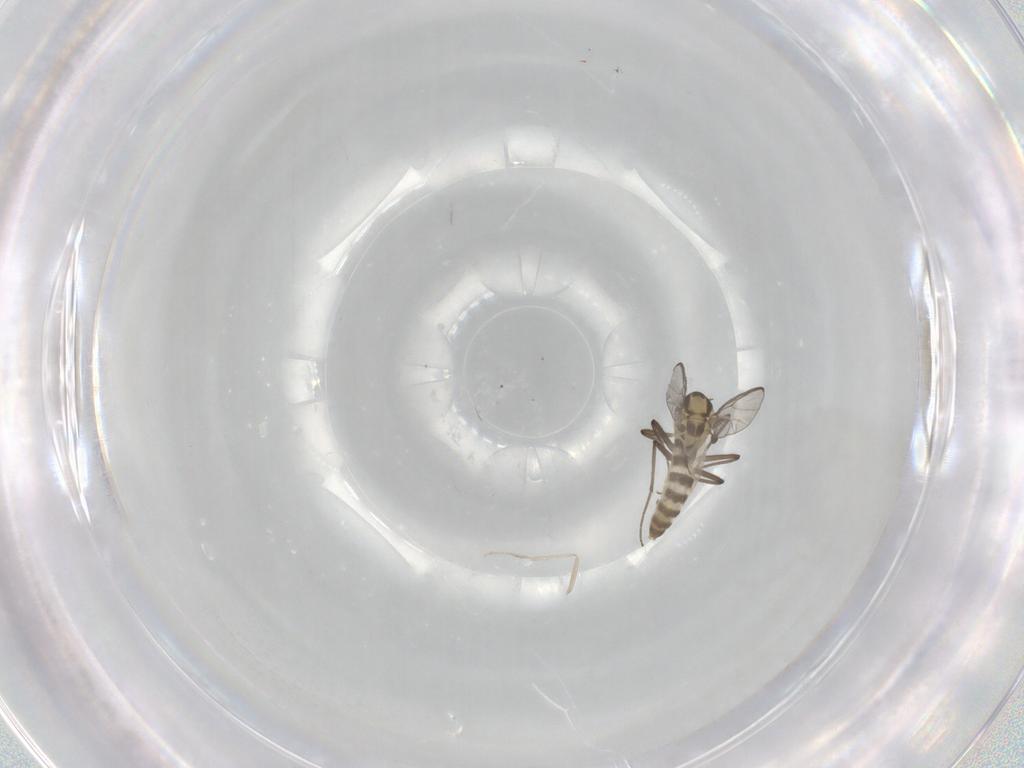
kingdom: Animalia
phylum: Arthropoda
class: Insecta
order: Diptera
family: Chironomidae
